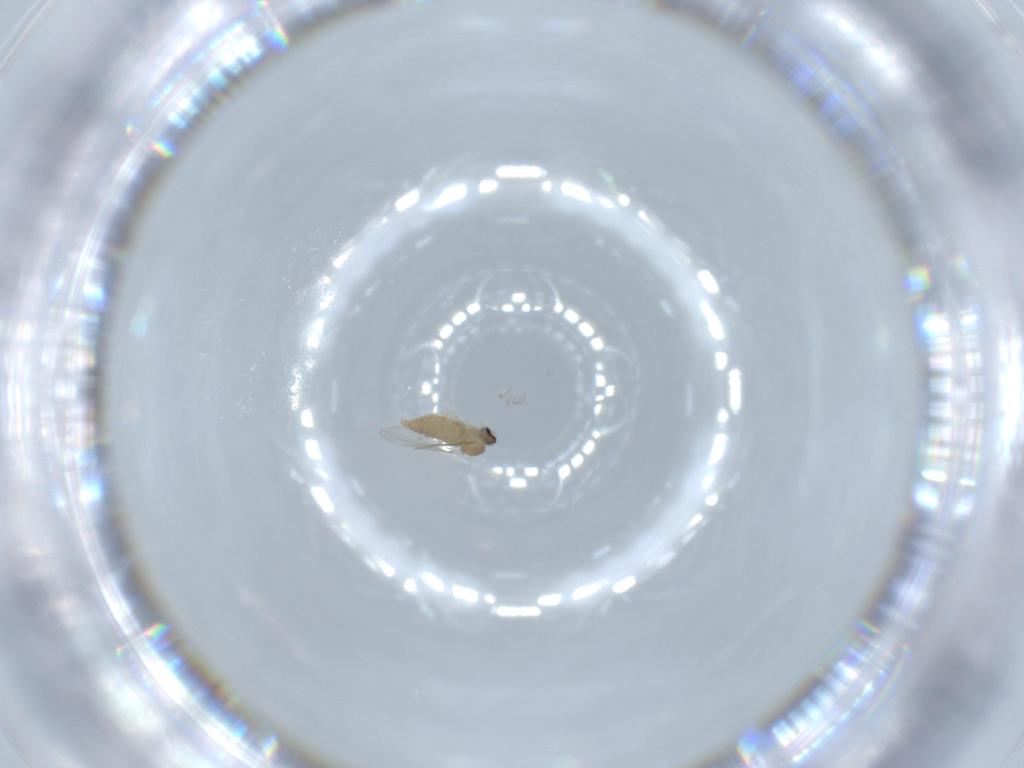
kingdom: Animalia
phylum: Arthropoda
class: Insecta
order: Diptera
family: Cecidomyiidae
